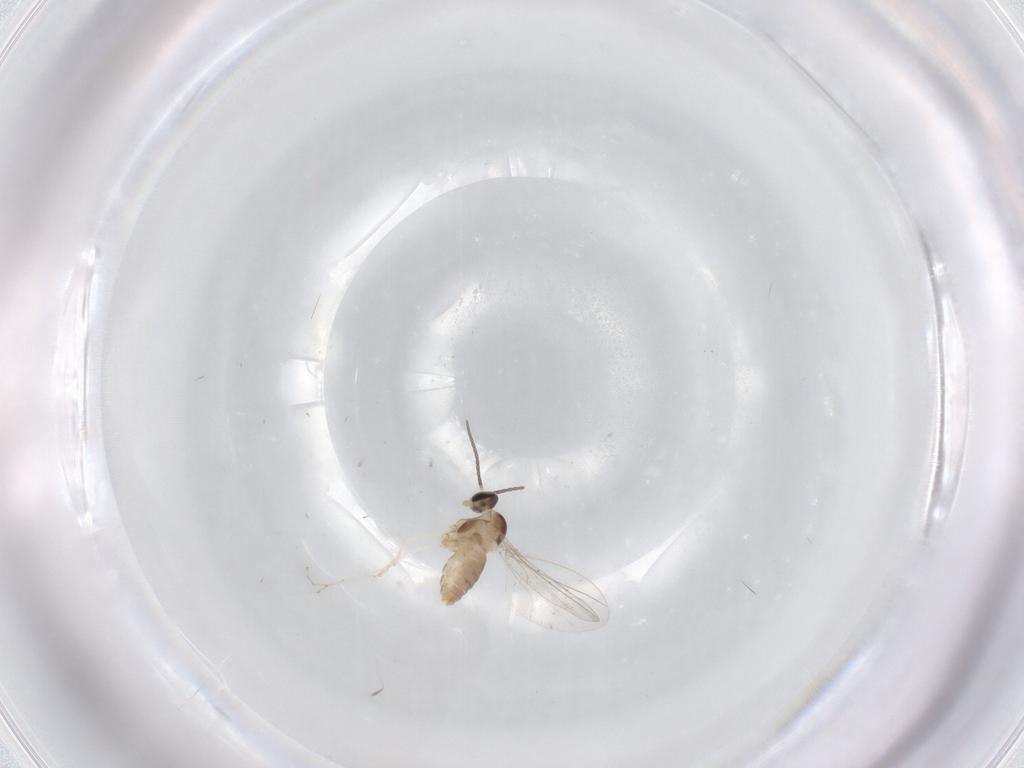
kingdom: Animalia
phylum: Arthropoda
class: Insecta
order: Diptera
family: Cecidomyiidae
